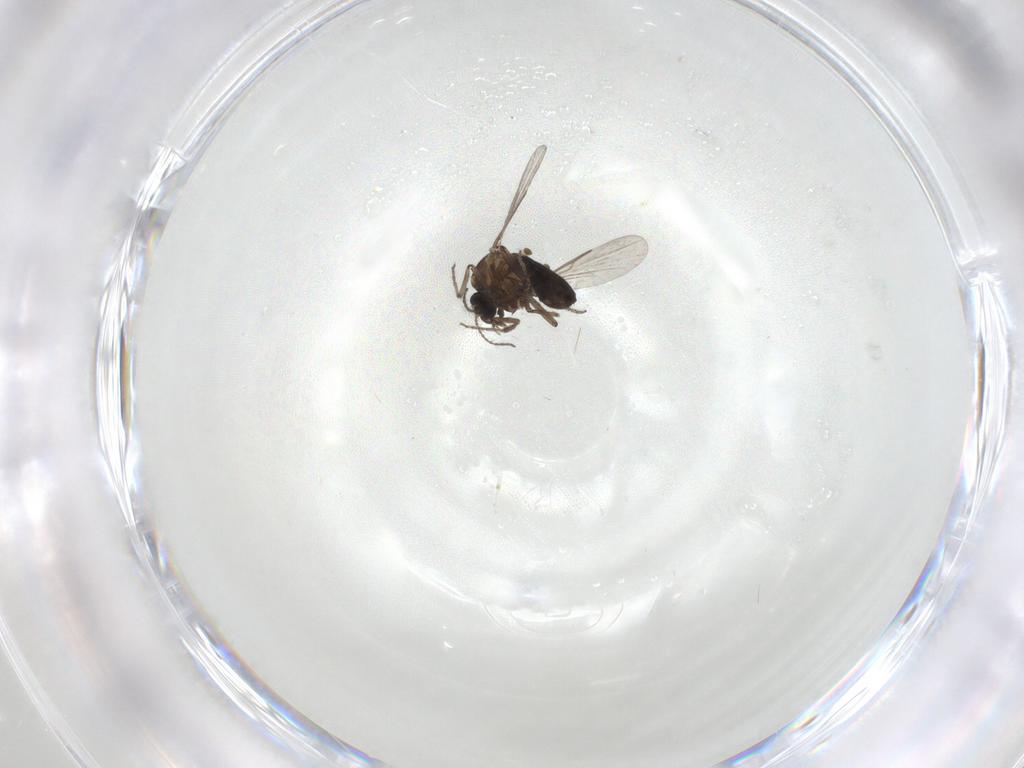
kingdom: Animalia
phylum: Arthropoda
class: Insecta
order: Diptera
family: Ceratopogonidae
